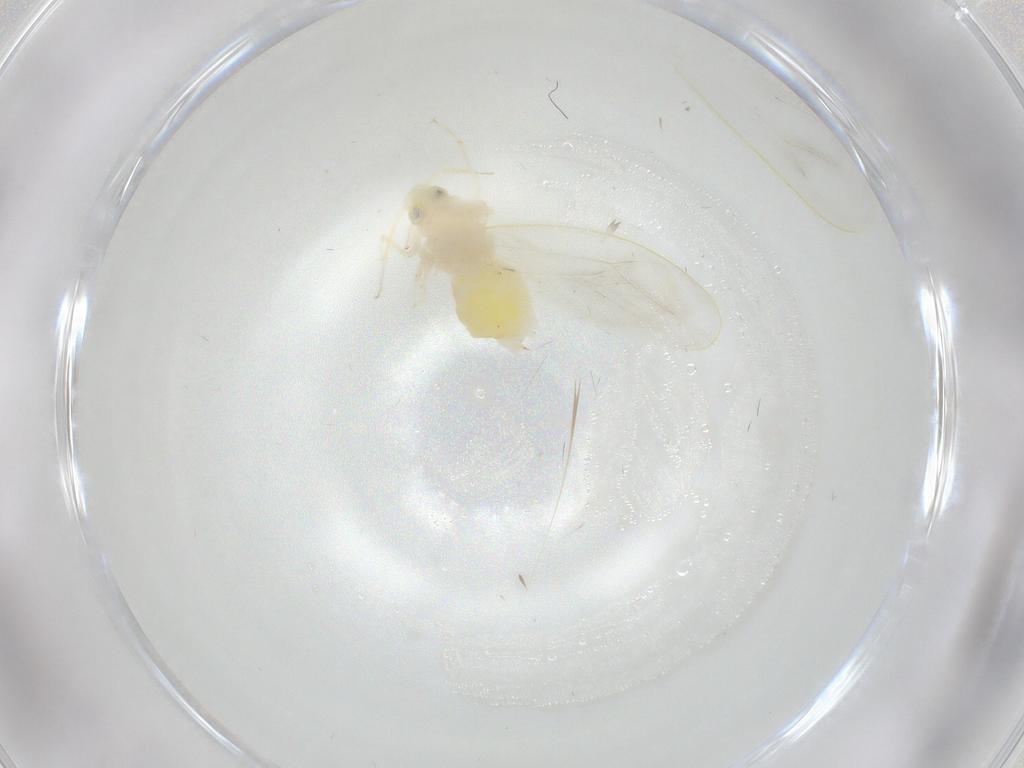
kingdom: Animalia
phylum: Arthropoda
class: Insecta
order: Hemiptera
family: Aleyrodidae
